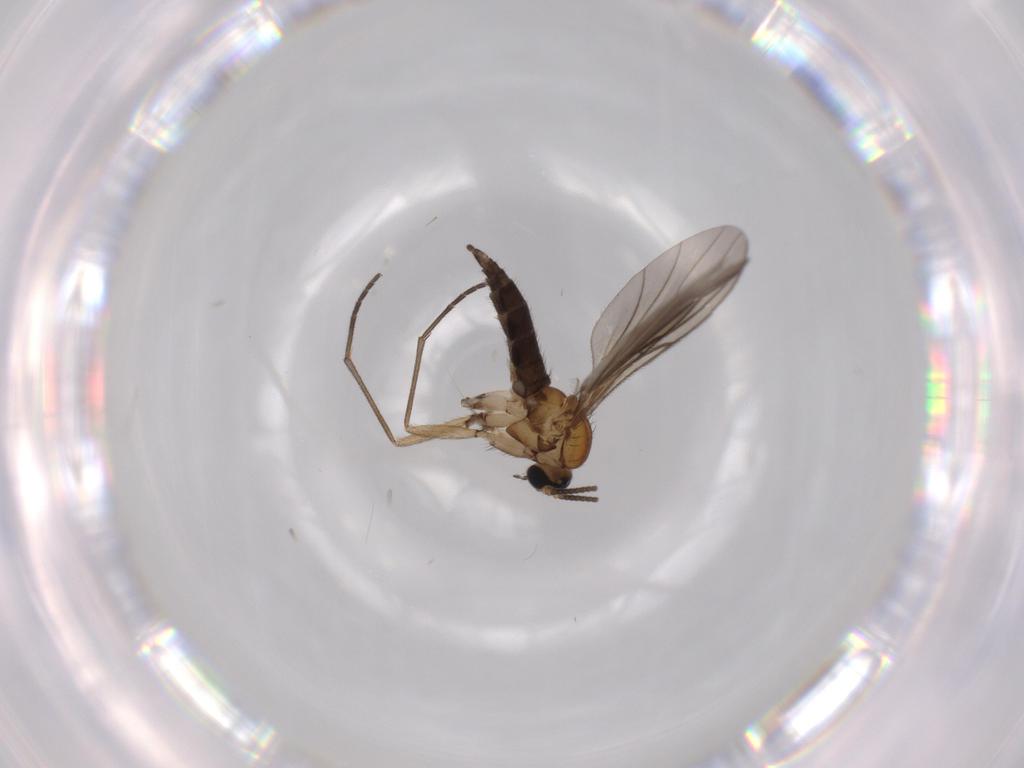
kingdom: Animalia
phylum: Arthropoda
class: Insecta
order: Diptera
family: Sciaridae
